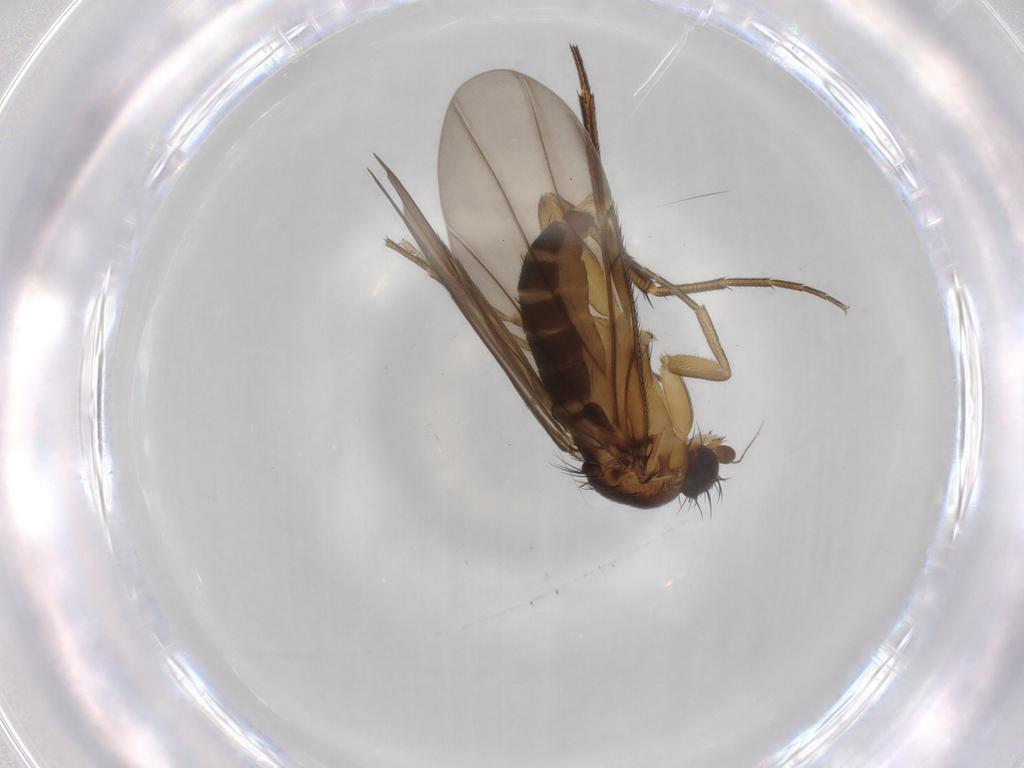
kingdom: Animalia
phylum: Arthropoda
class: Insecta
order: Diptera
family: Phoridae
